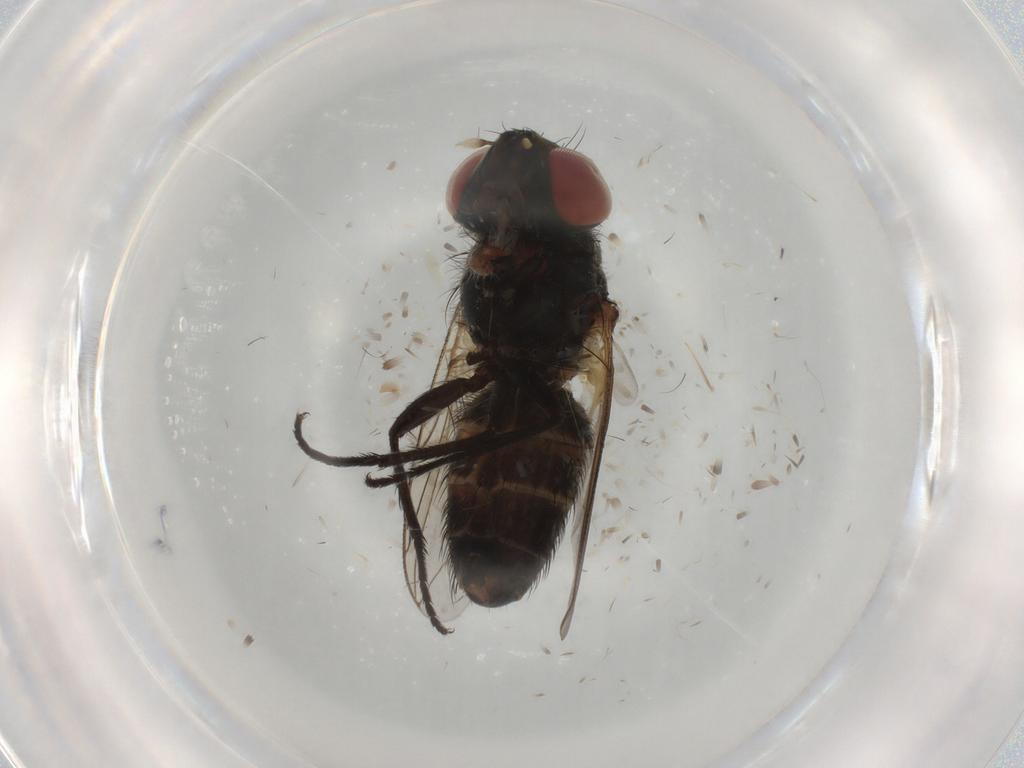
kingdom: Animalia
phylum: Arthropoda
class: Insecta
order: Diptera
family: Sarcophagidae
